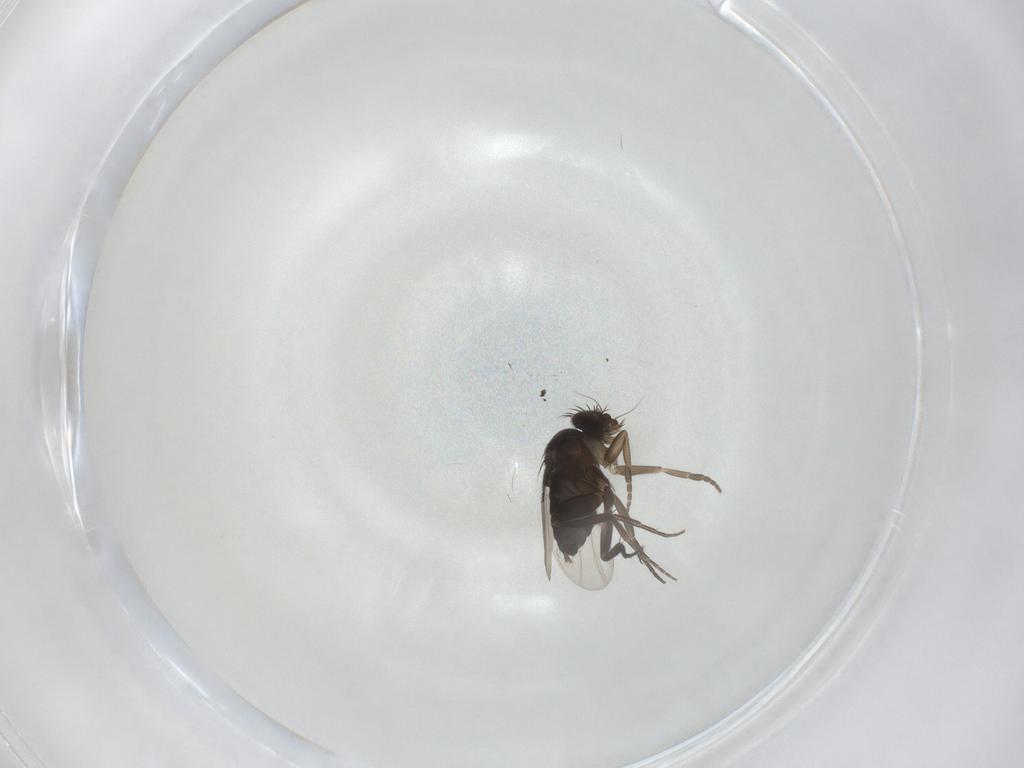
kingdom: Animalia
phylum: Arthropoda
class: Insecta
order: Diptera
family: Phoridae
